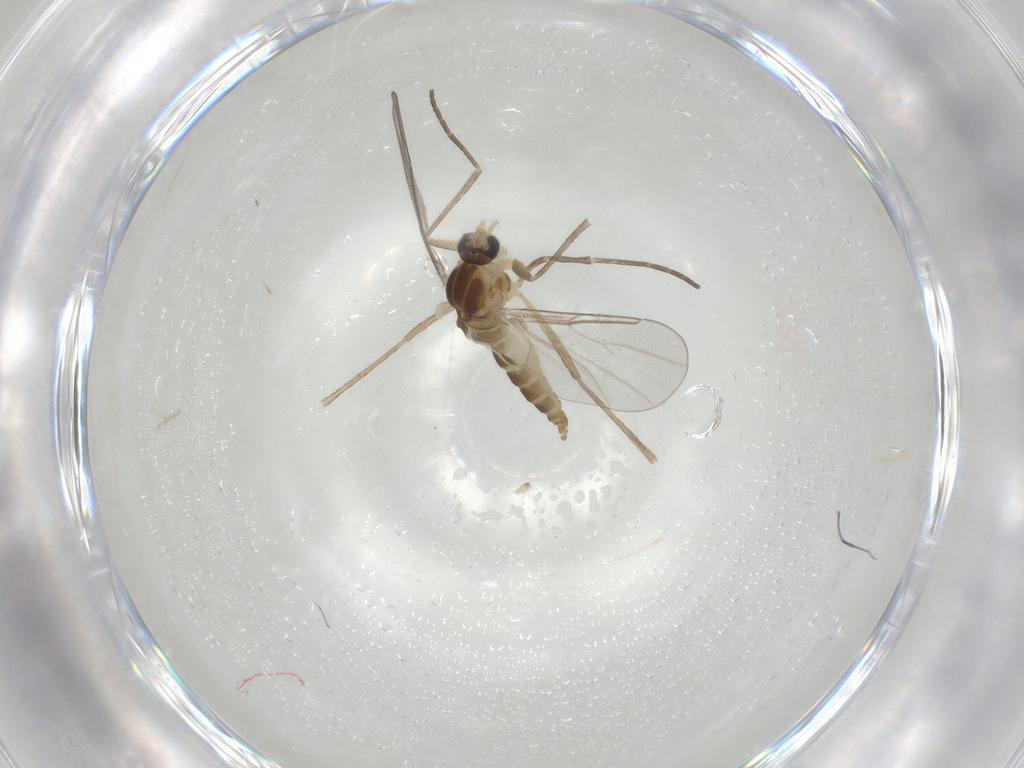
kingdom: Animalia
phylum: Arthropoda
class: Insecta
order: Diptera
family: Cecidomyiidae
